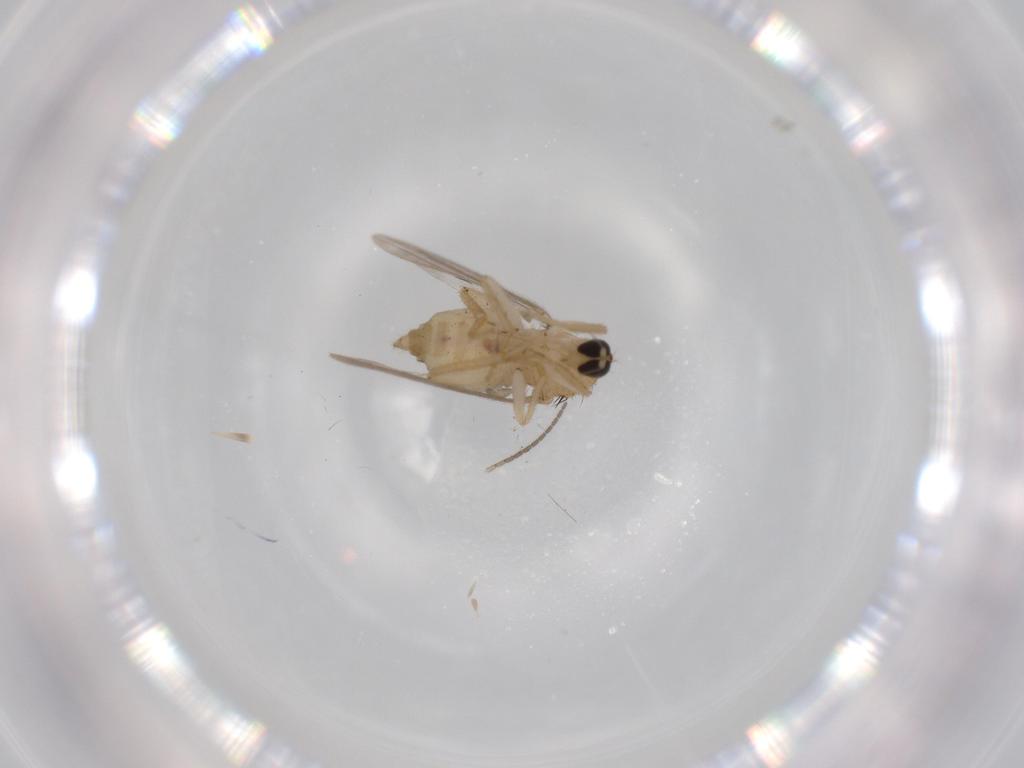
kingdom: Animalia
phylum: Arthropoda
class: Insecta
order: Diptera
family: Hybotidae
